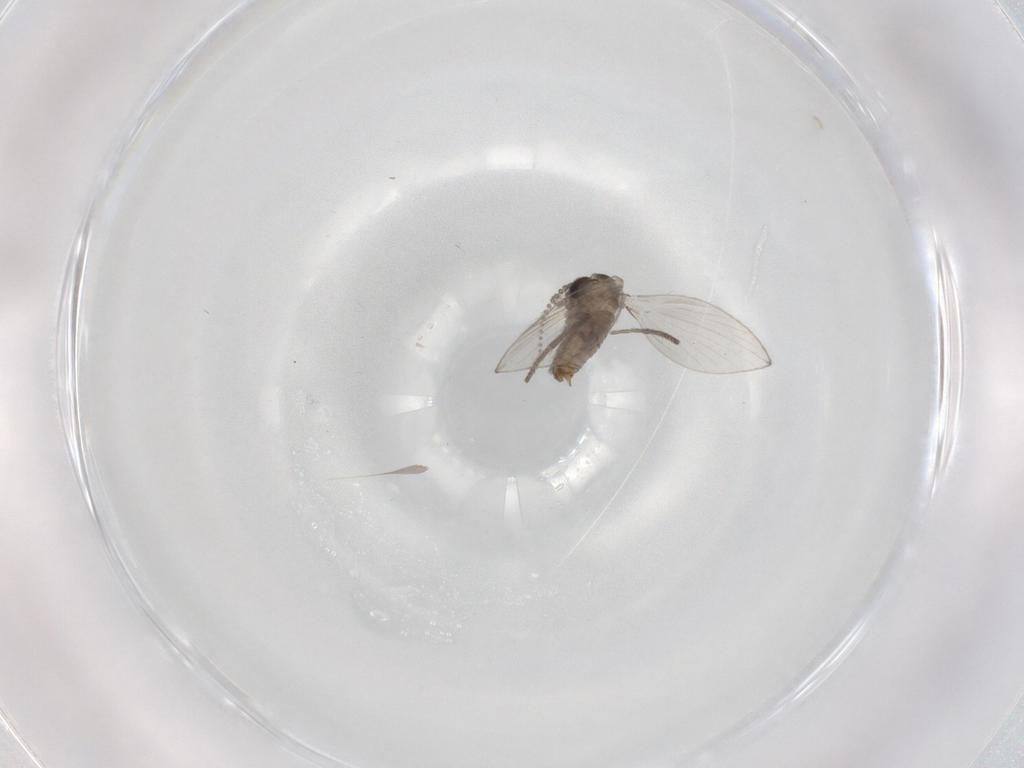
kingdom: Animalia
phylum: Arthropoda
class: Insecta
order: Diptera
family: Psychodidae
